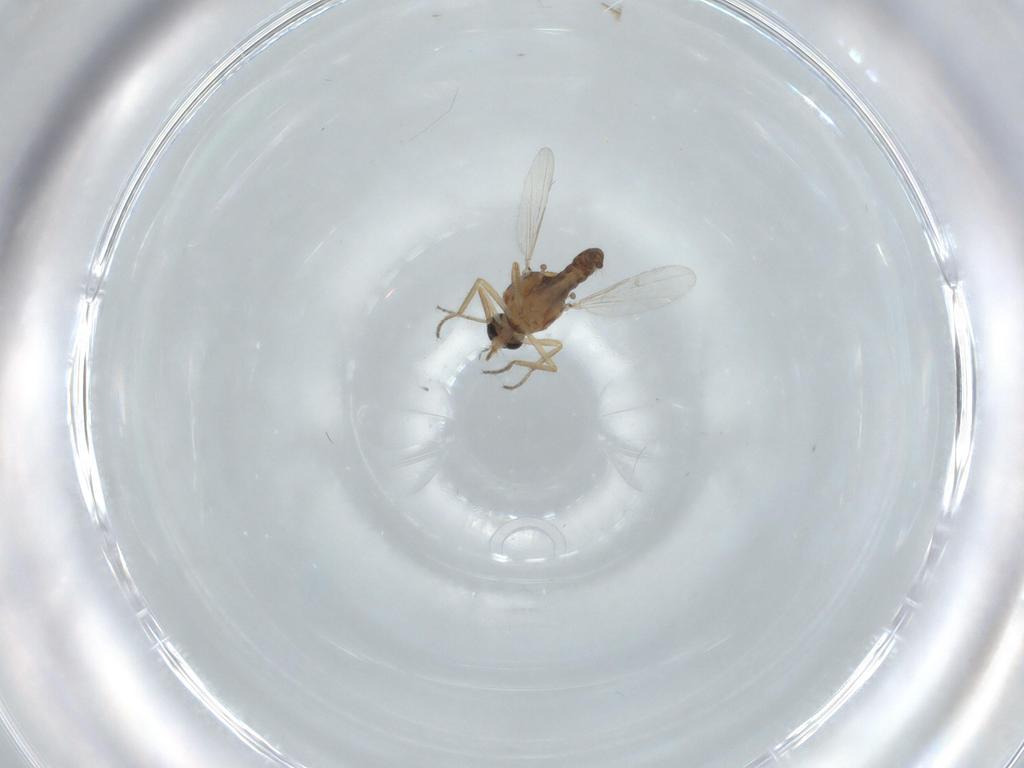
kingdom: Animalia
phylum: Arthropoda
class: Insecta
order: Diptera
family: Ceratopogonidae
